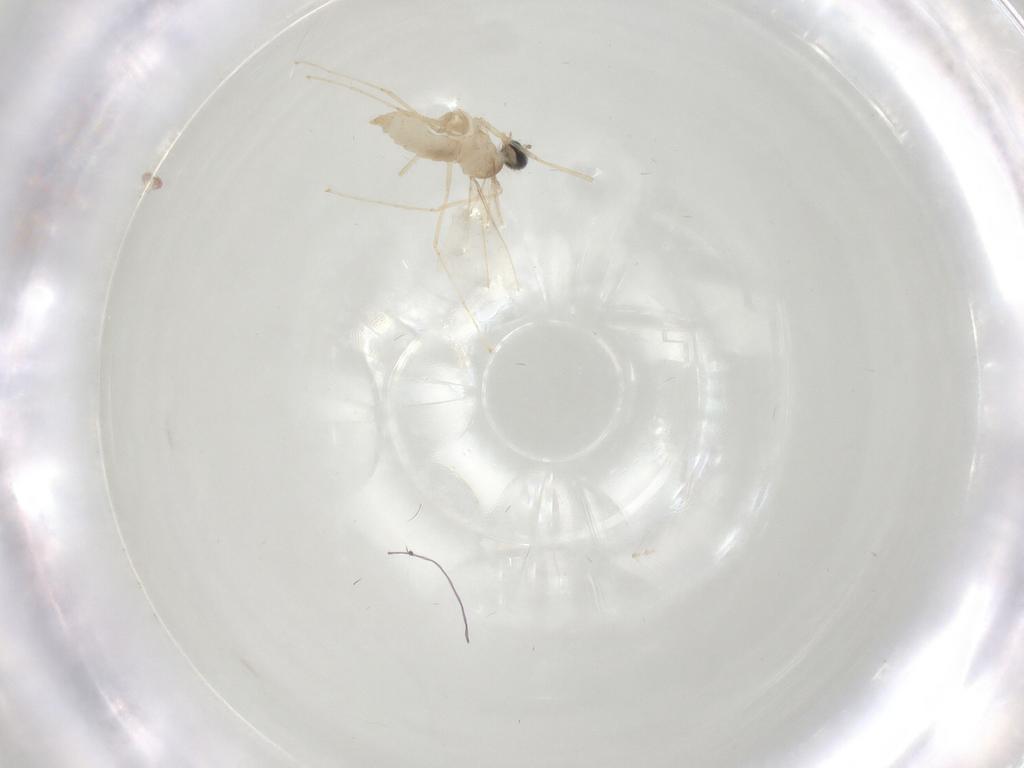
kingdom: Animalia
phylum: Arthropoda
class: Insecta
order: Diptera
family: Cecidomyiidae
